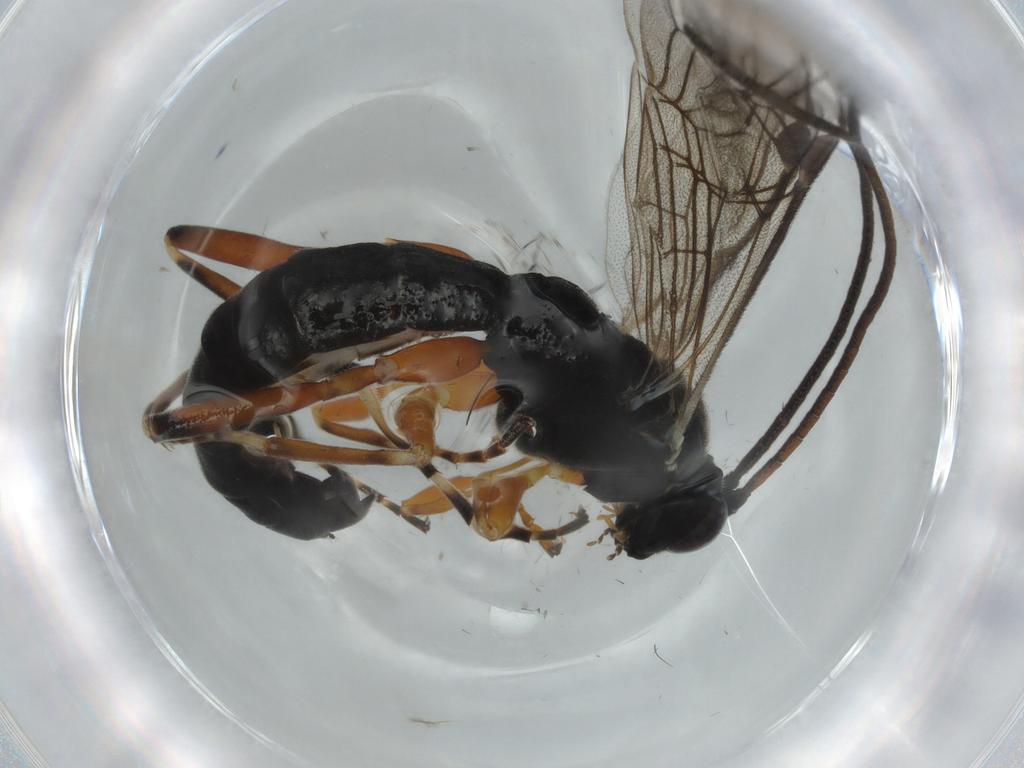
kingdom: Animalia
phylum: Arthropoda
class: Insecta
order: Hymenoptera
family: Ichneumonidae
